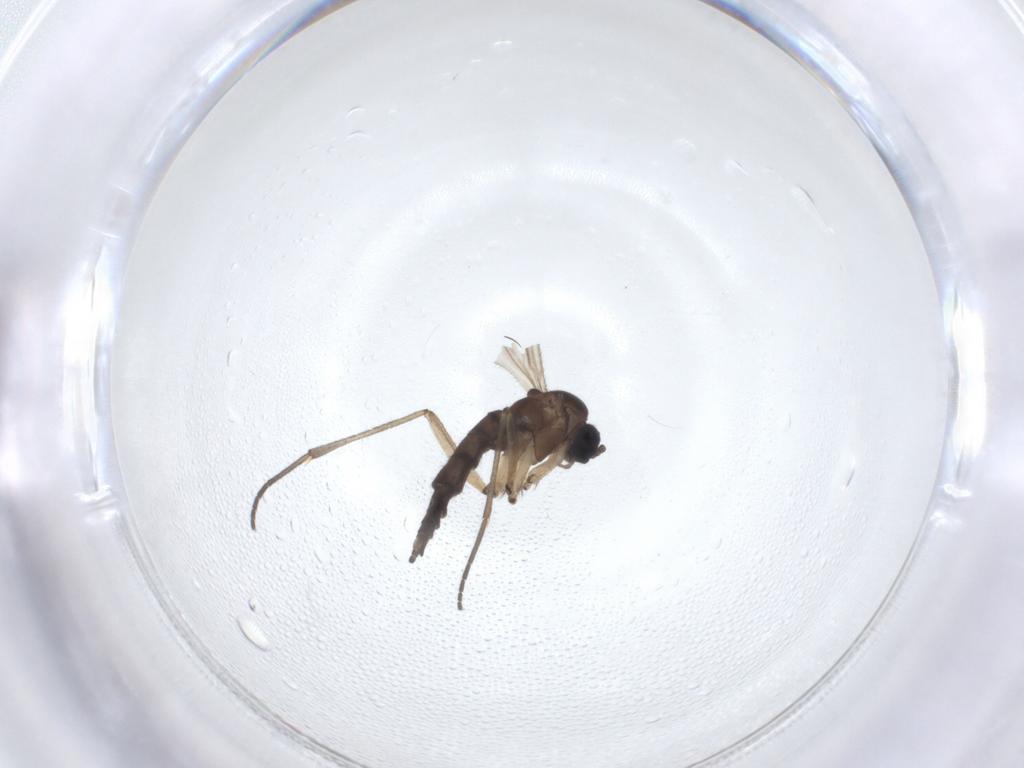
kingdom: Animalia
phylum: Arthropoda
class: Insecta
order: Diptera
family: Sciaridae
